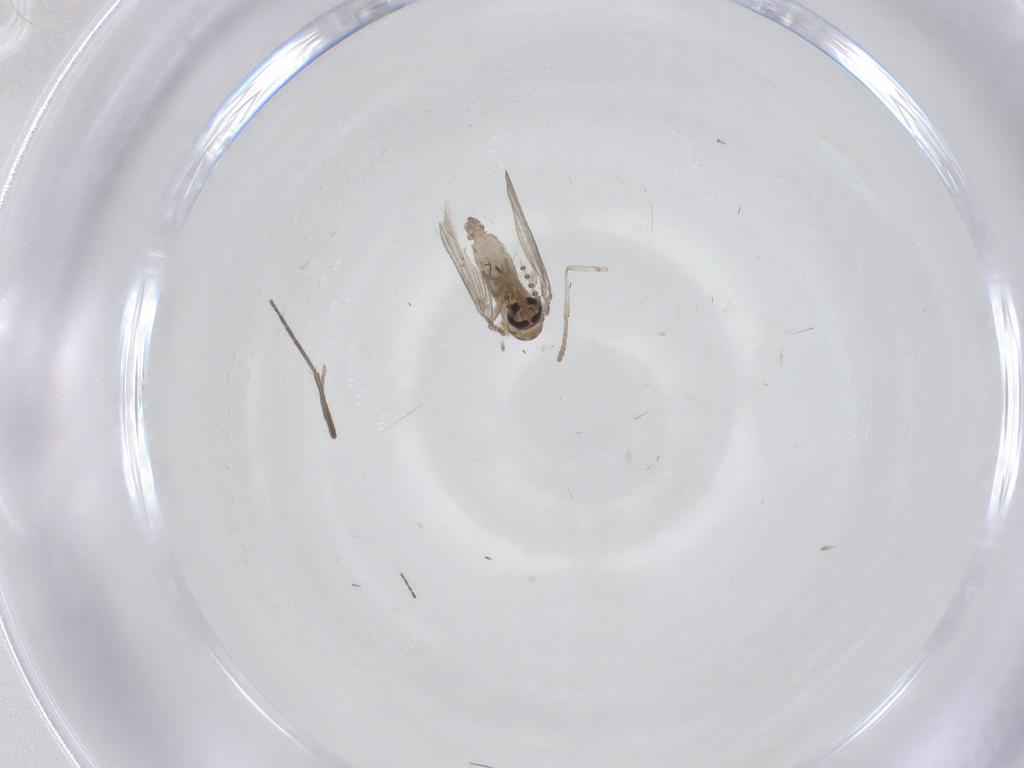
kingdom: Animalia
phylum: Arthropoda
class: Insecta
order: Diptera
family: Psychodidae
